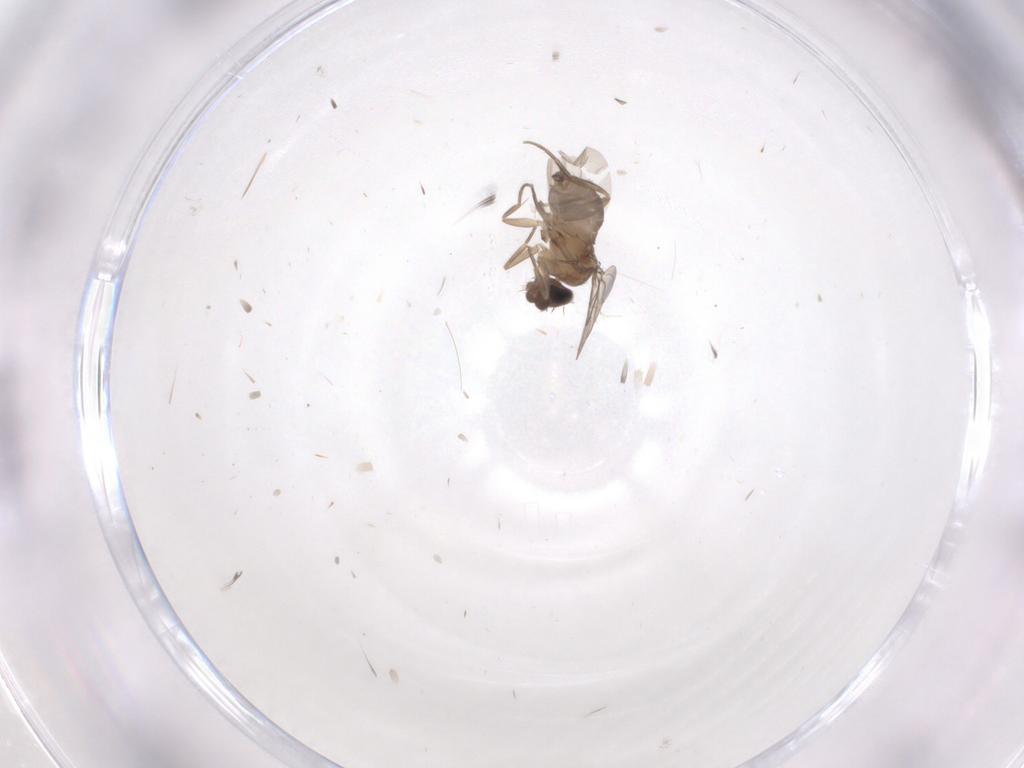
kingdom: Animalia
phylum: Arthropoda
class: Insecta
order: Diptera
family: Phoridae
